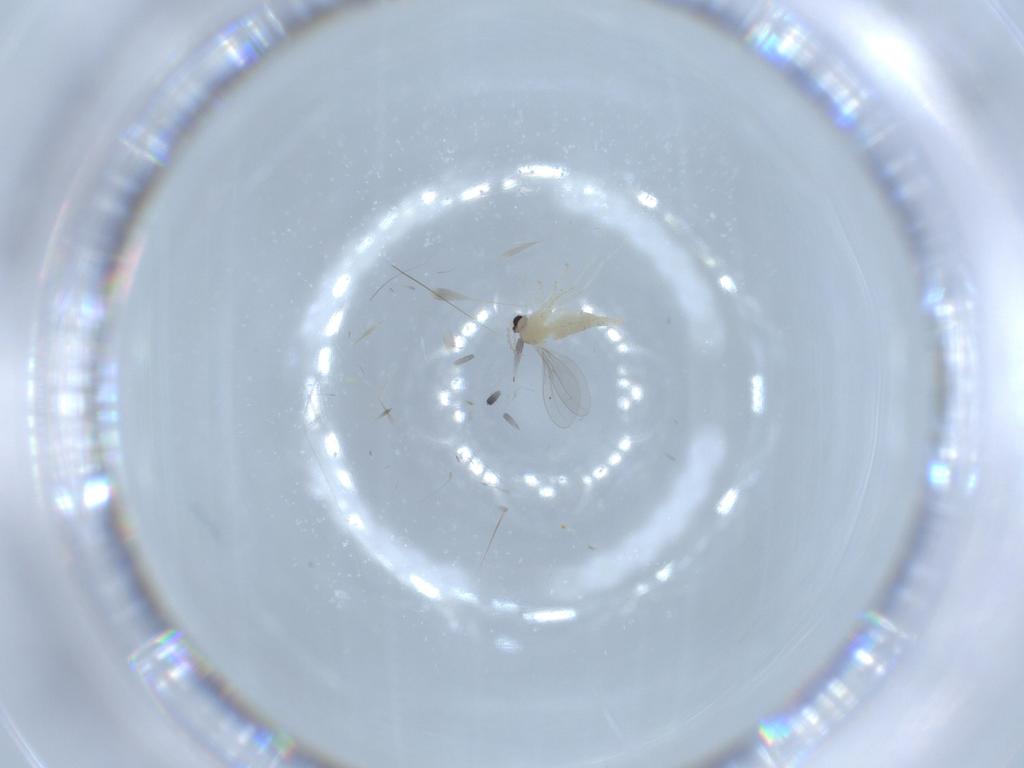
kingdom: Animalia
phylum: Arthropoda
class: Insecta
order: Diptera
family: Cecidomyiidae
